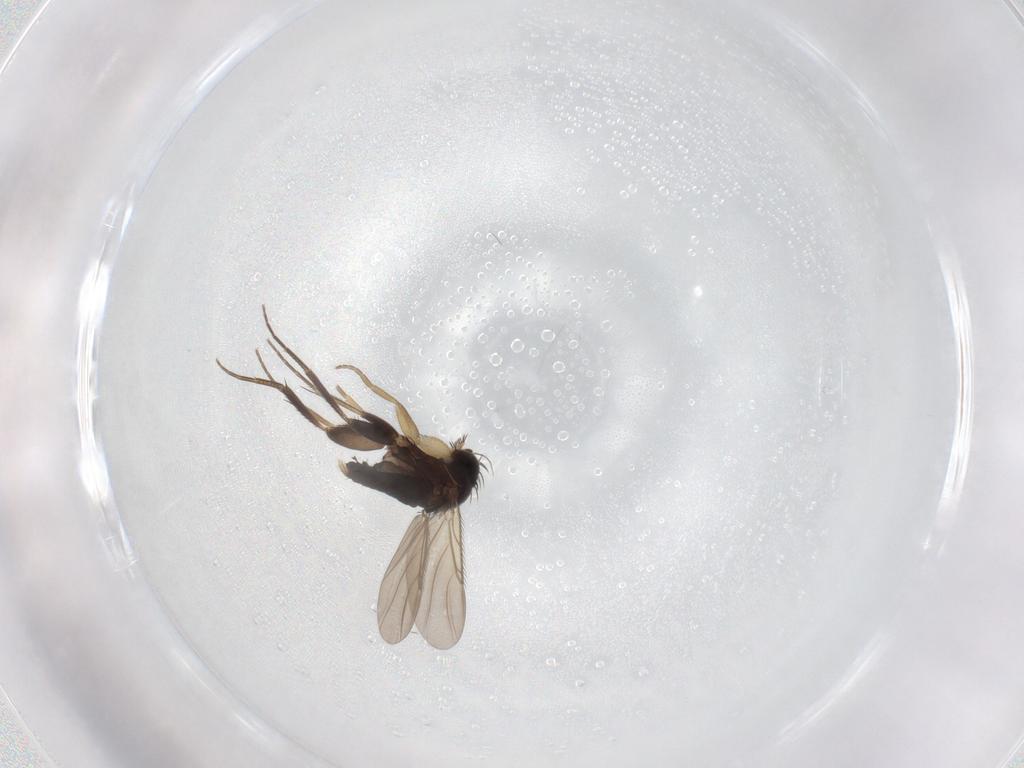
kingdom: Animalia
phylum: Arthropoda
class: Insecta
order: Diptera
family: Phoridae
